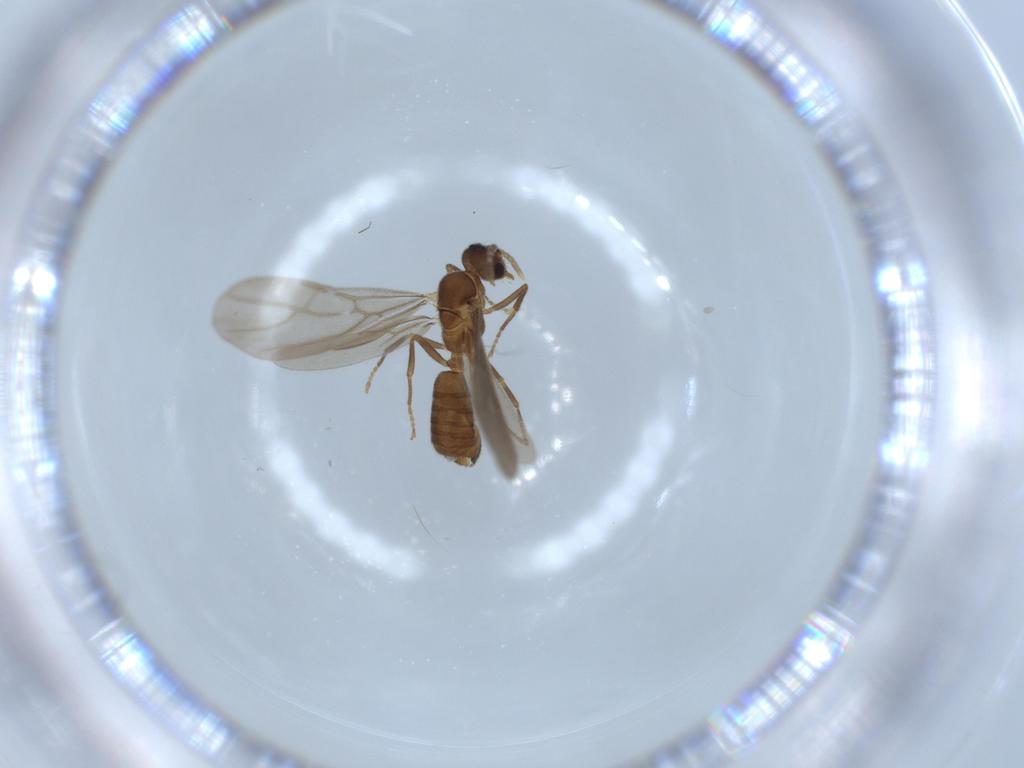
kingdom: Animalia
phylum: Arthropoda
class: Insecta
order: Hymenoptera
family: Formicidae
